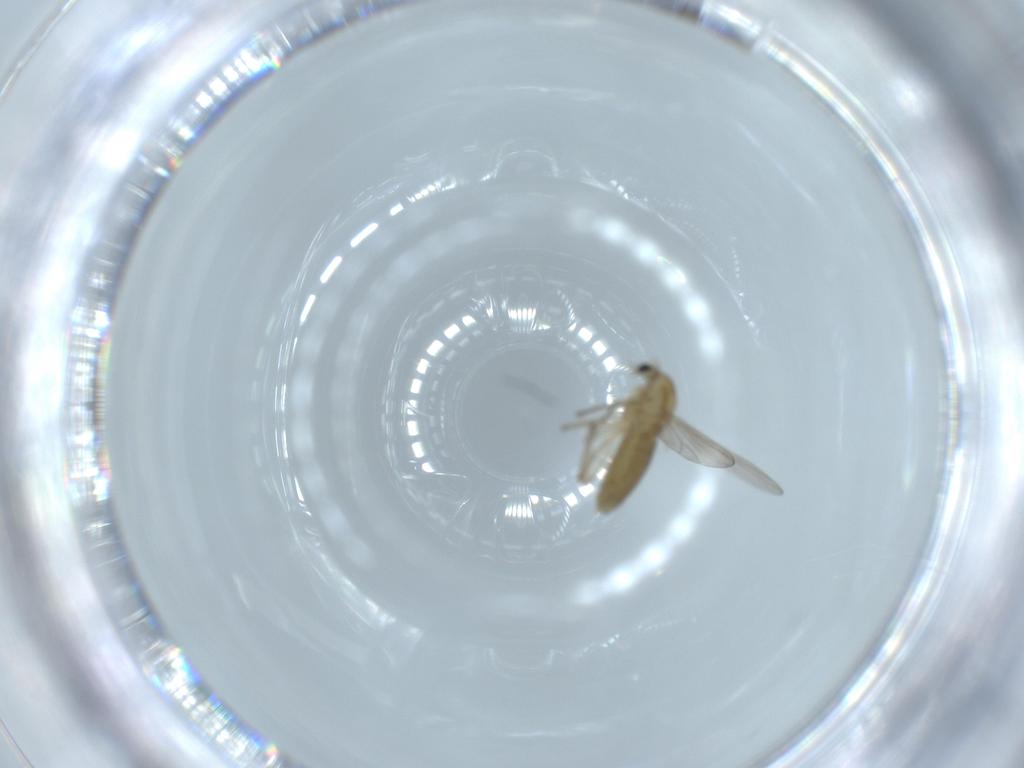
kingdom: Animalia
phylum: Arthropoda
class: Insecta
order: Diptera
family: Chironomidae
